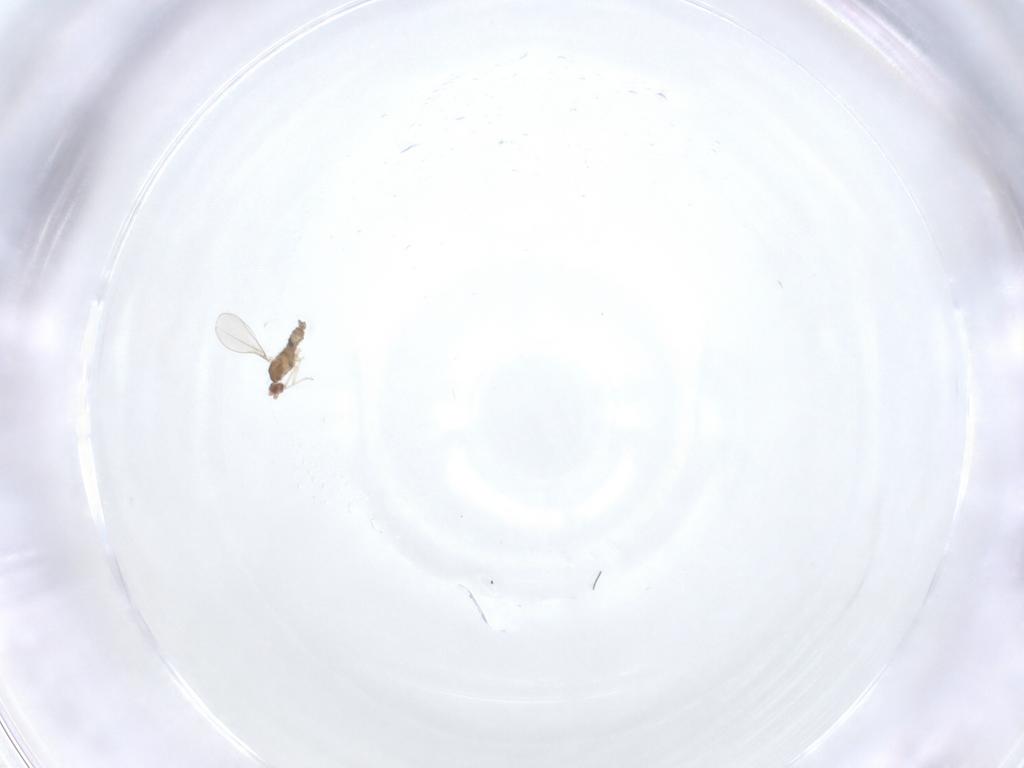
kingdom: Animalia
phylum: Arthropoda
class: Insecta
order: Diptera
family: Cecidomyiidae
